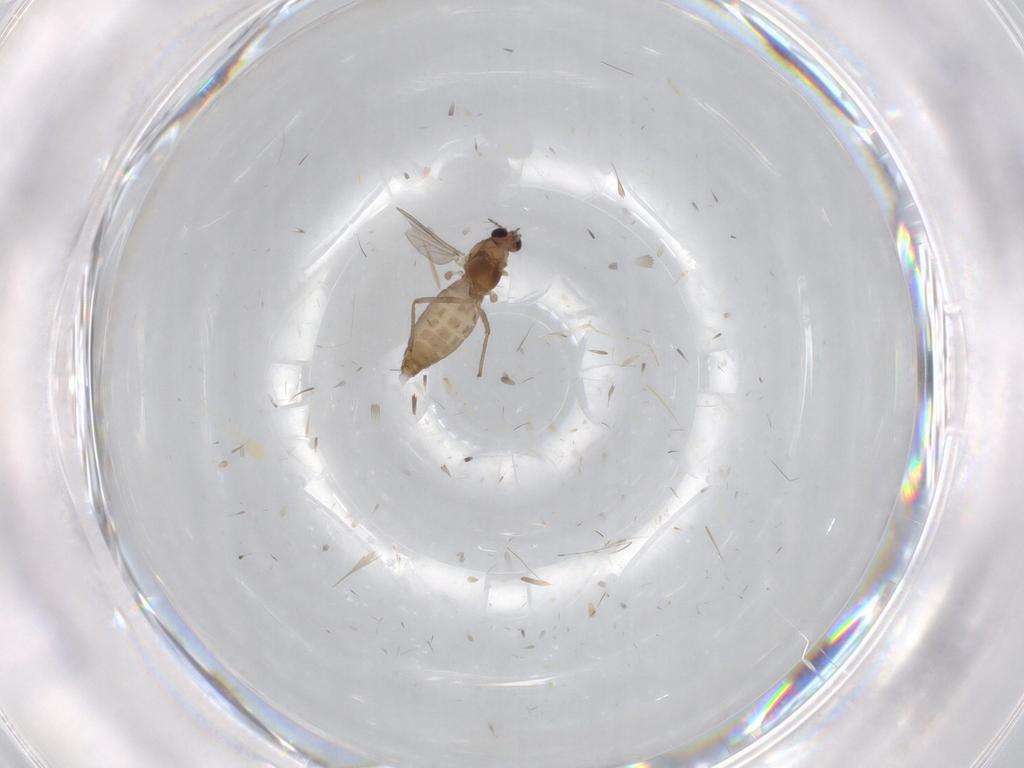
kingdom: Animalia
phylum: Arthropoda
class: Insecta
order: Diptera
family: Chironomidae
